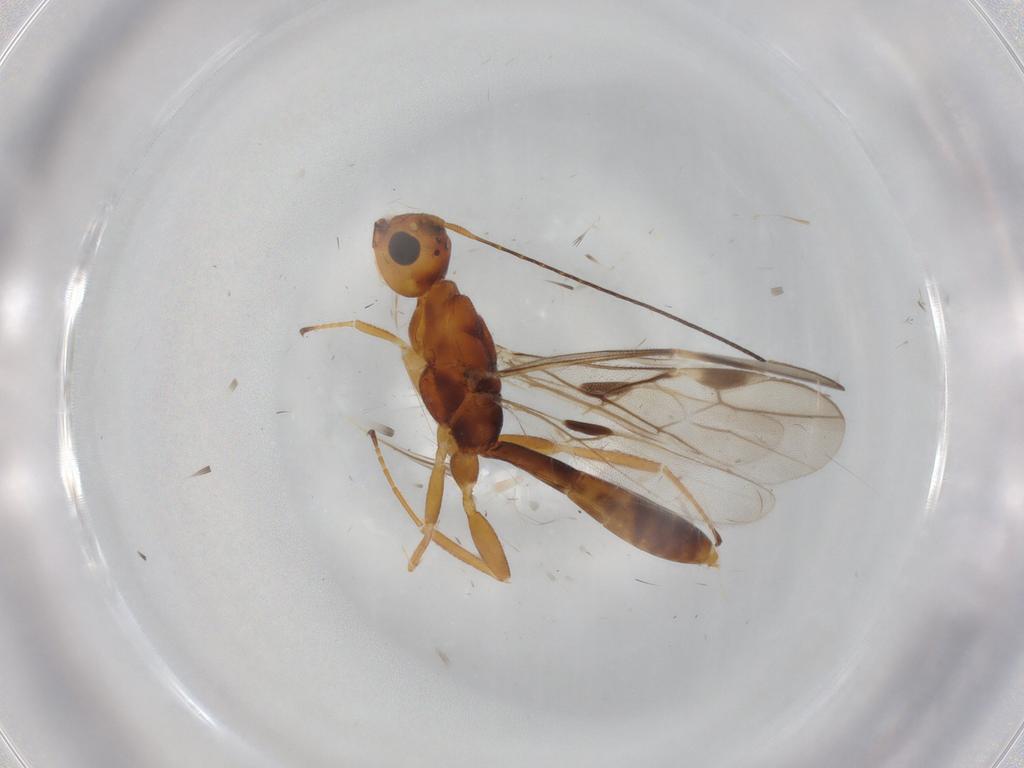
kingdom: Animalia
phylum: Arthropoda
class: Insecta
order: Hymenoptera
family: Braconidae
